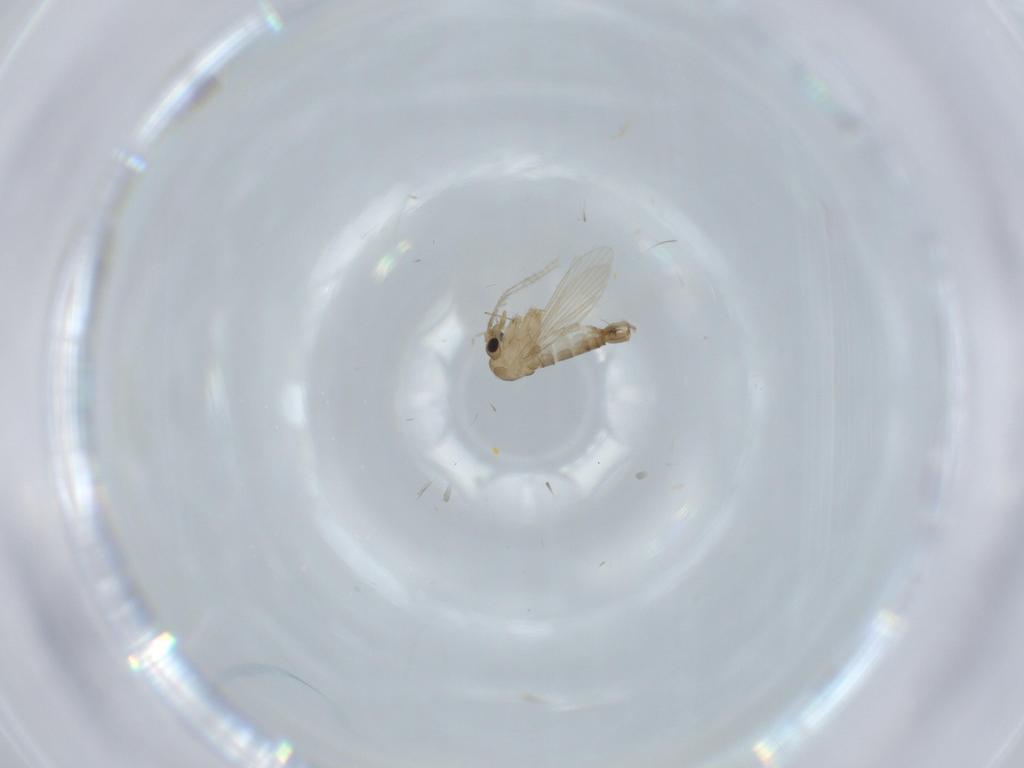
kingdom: Animalia
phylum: Arthropoda
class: Insecta
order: Diptera
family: Psychodidae
